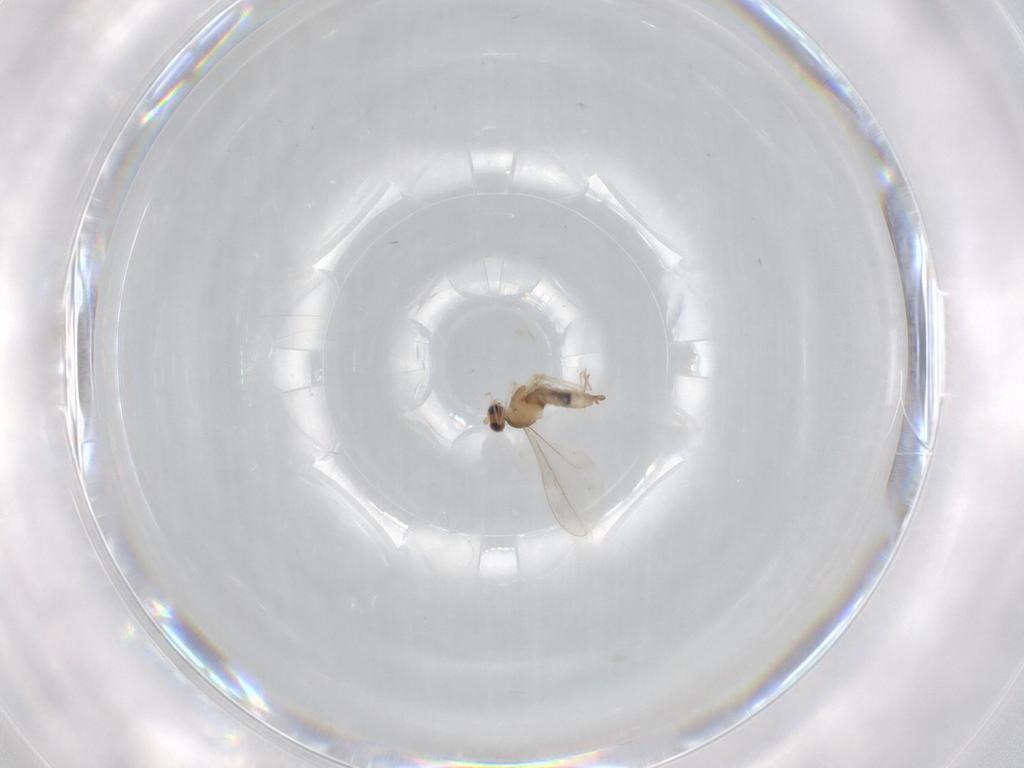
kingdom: Animalia
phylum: Arthropoda
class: Insecta
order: Diptera
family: Cecidomyiidae
